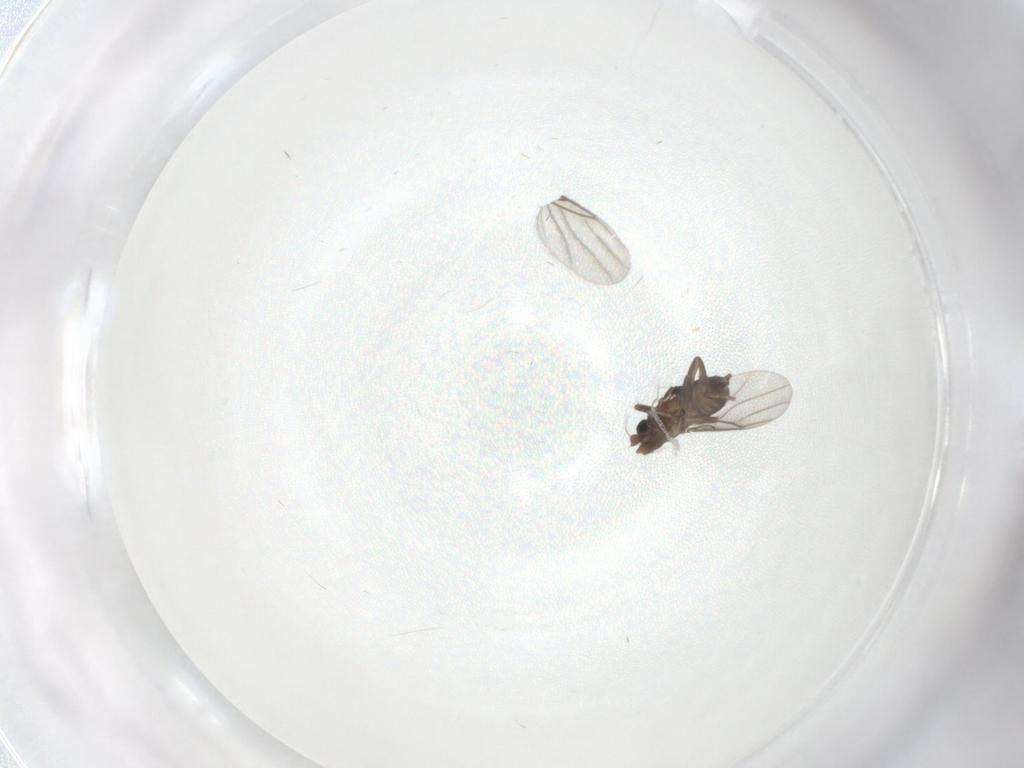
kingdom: Animalia
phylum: Arthropoda
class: Insecta
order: Diptera
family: Phoridae
